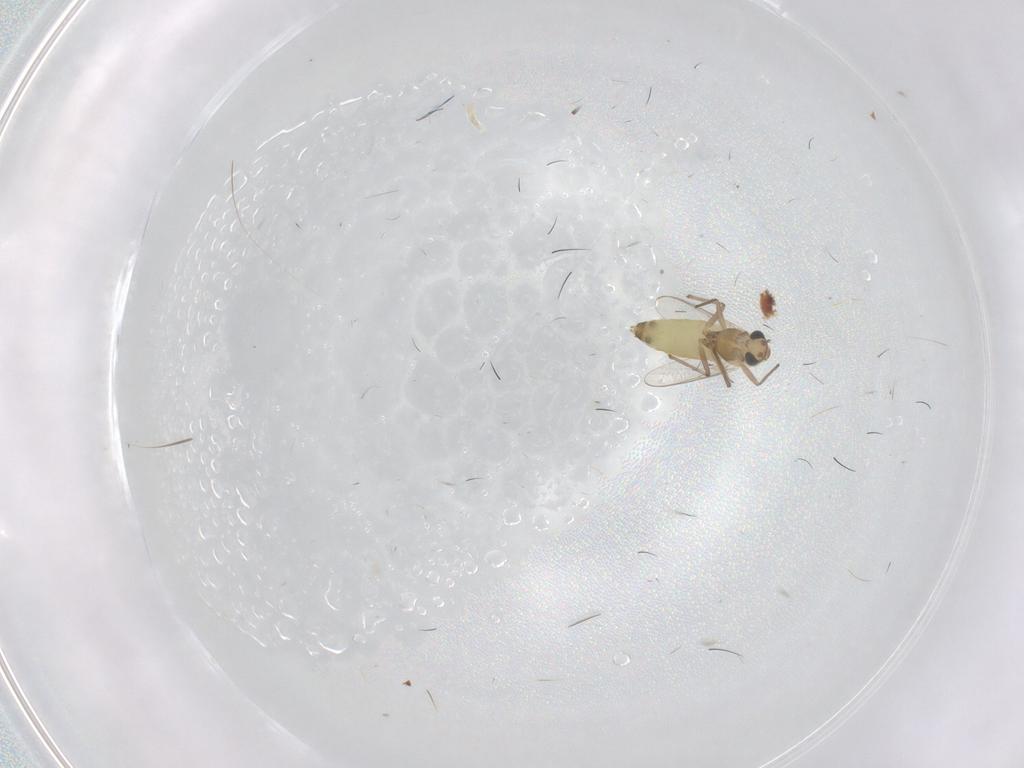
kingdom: Animalia
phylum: Arthropoda
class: Insecta
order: Diptera
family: Chironomidae
